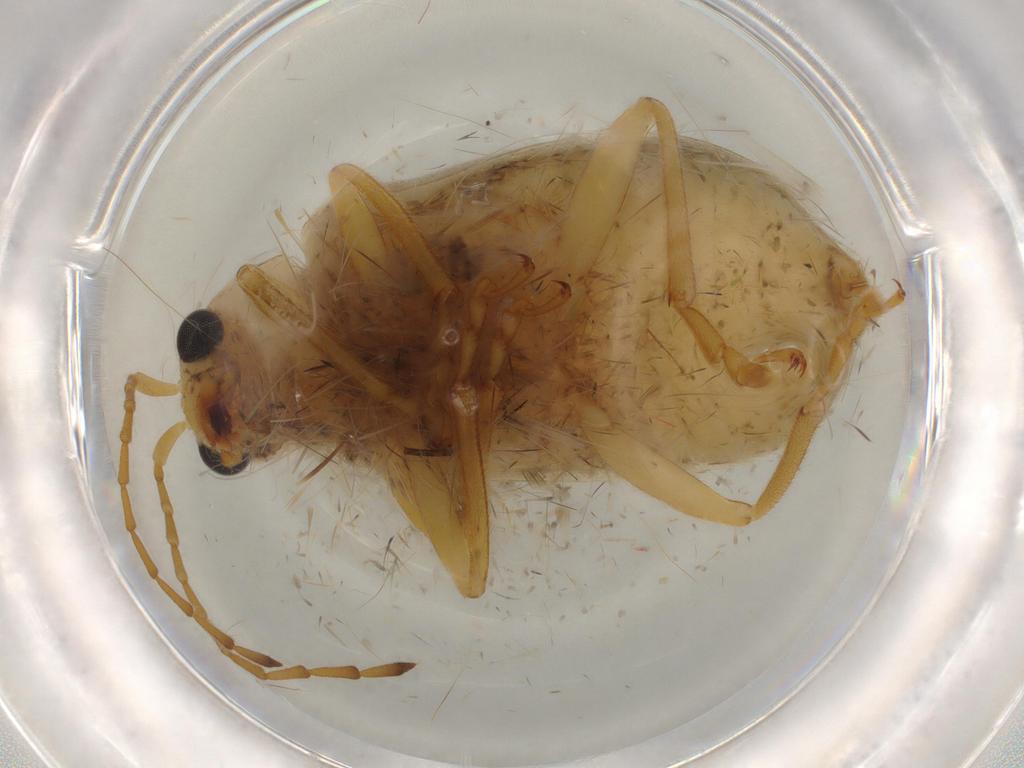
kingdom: Animalia
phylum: Arthropoda
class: Insecta
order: Coleoptera
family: Chrysomelidae
